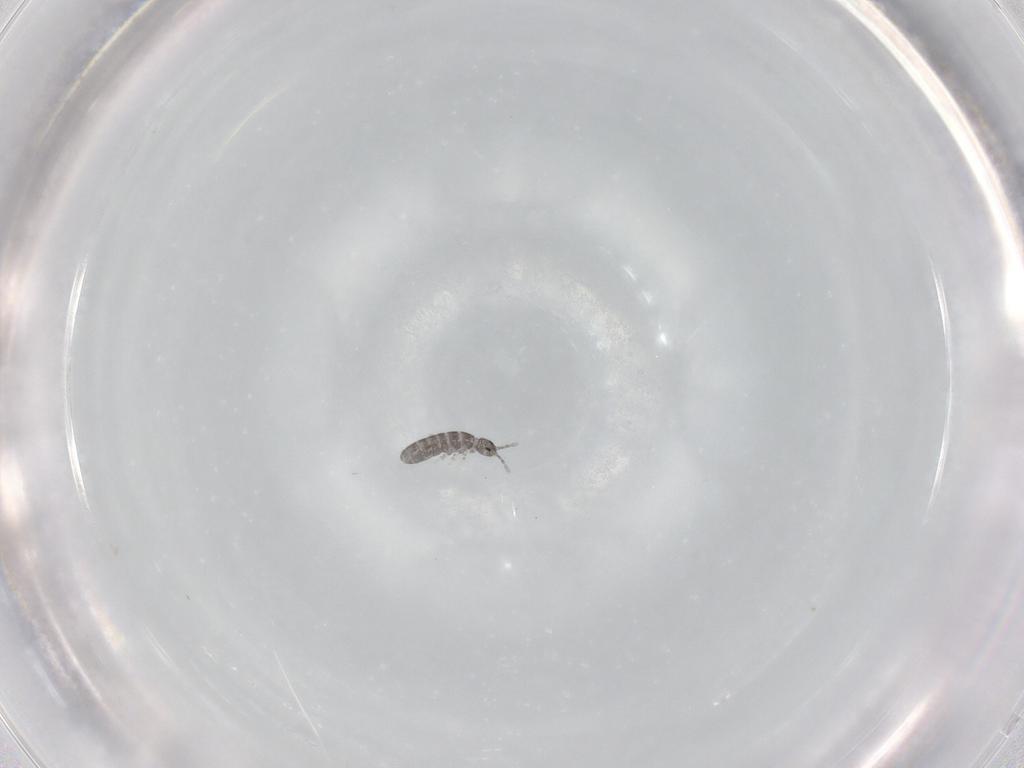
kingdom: Animalia
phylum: Arthropoda
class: Collembola
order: Entomobryomorpha
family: Isotomidae
